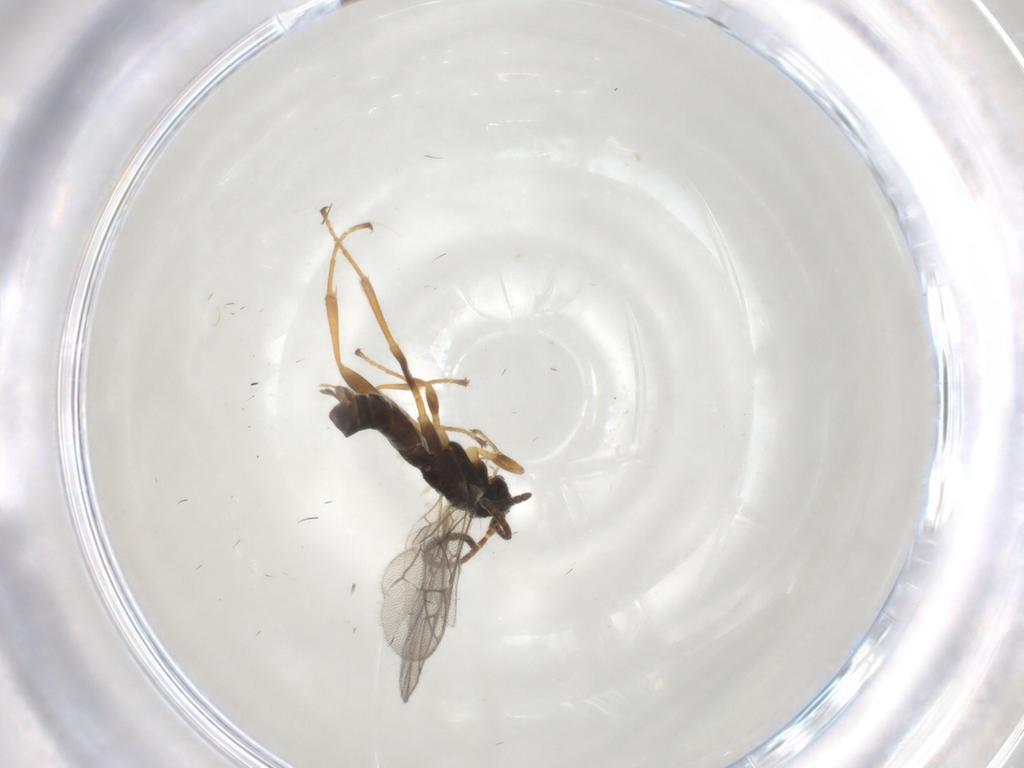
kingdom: Animalia
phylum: Arthropoda
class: Insecta
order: Hymenoptera
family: Ichneumonidae
